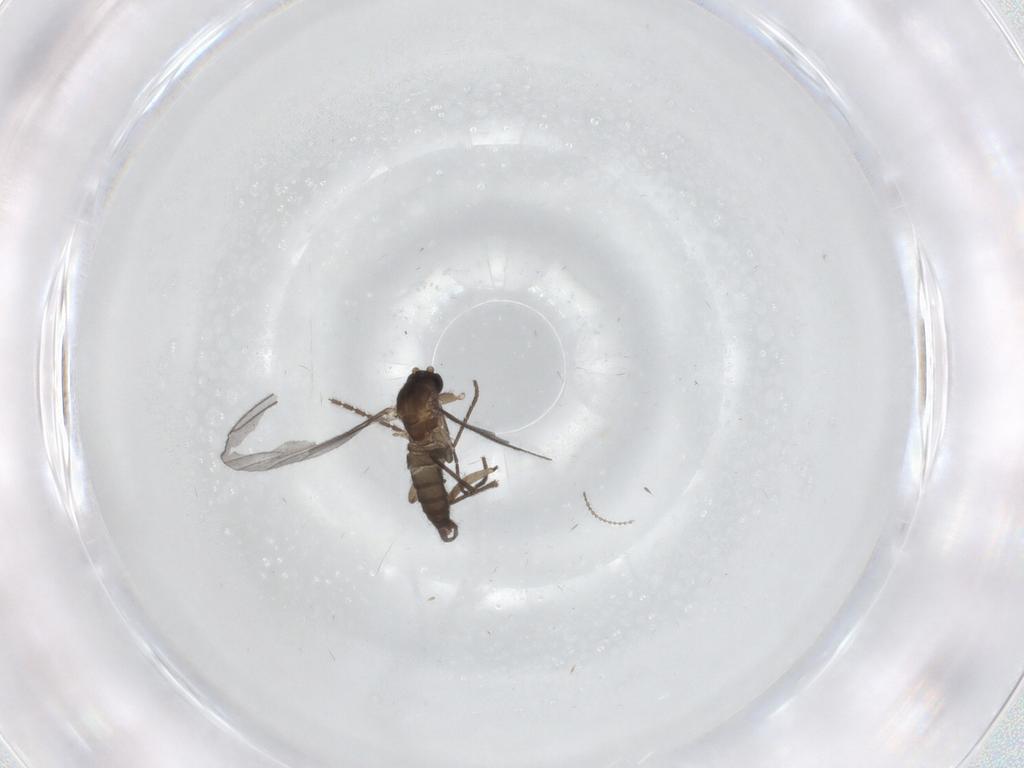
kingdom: Animalia
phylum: Arthropoda
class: Insecta
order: Diptera
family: Sciaridae
